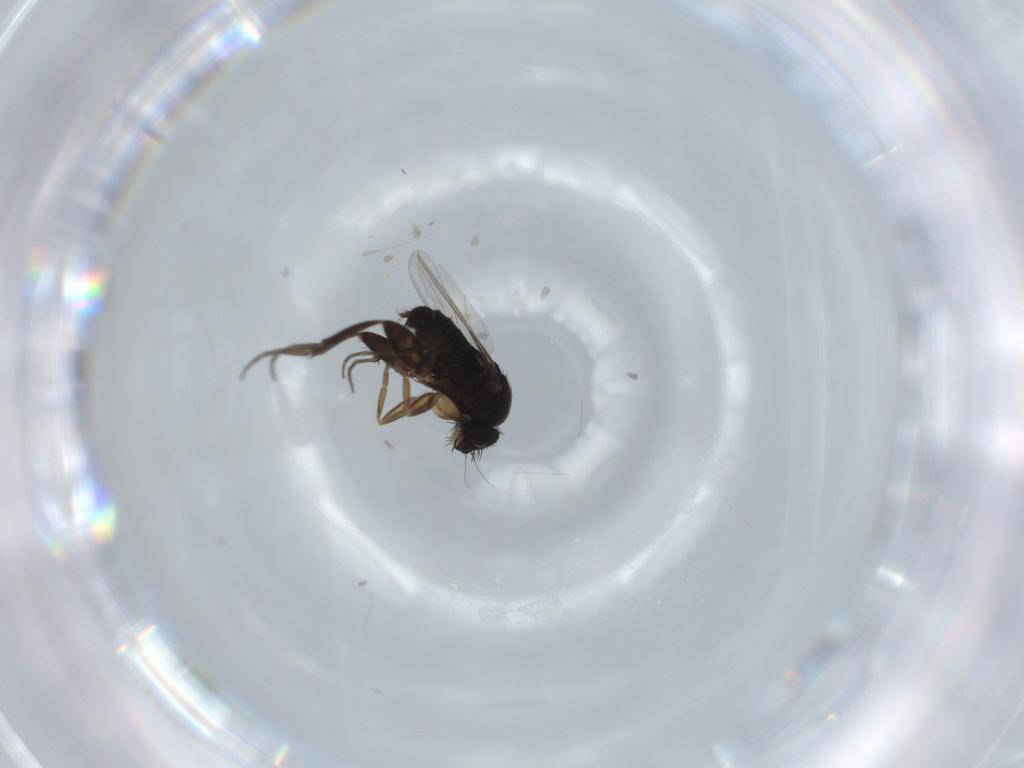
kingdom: Animalia
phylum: Arthropoda
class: Insecta
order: Diptera
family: Phoridae
